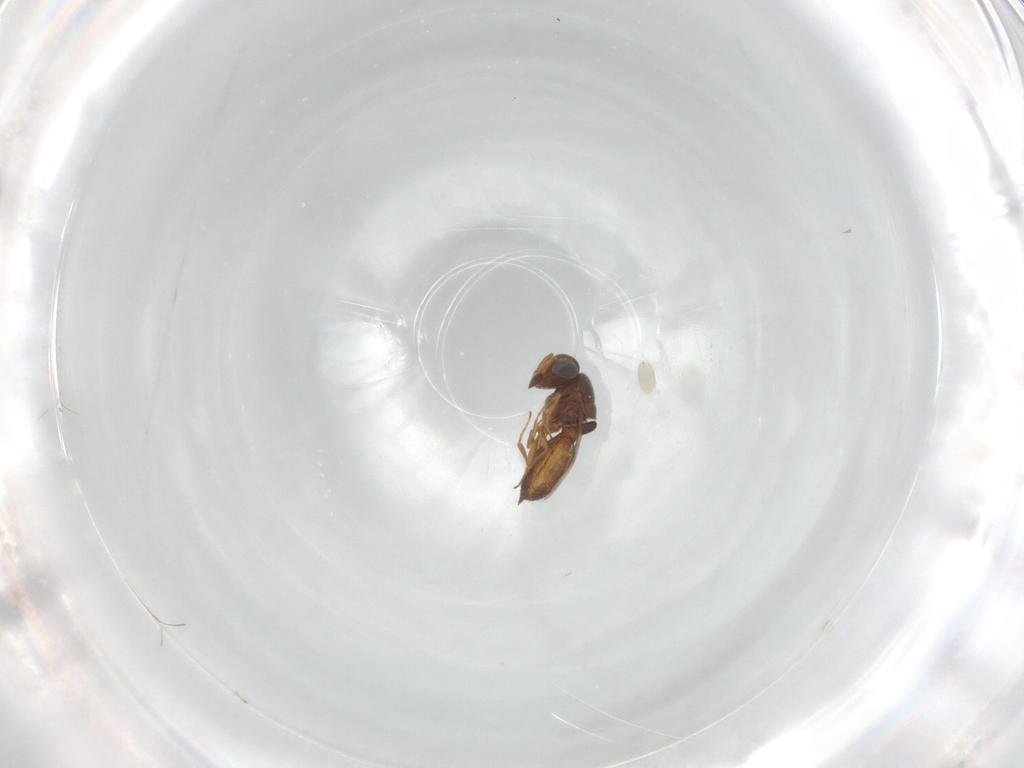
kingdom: Animalia
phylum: Arthropoda
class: Insecta
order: Hymenoptera
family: Scelionidae
